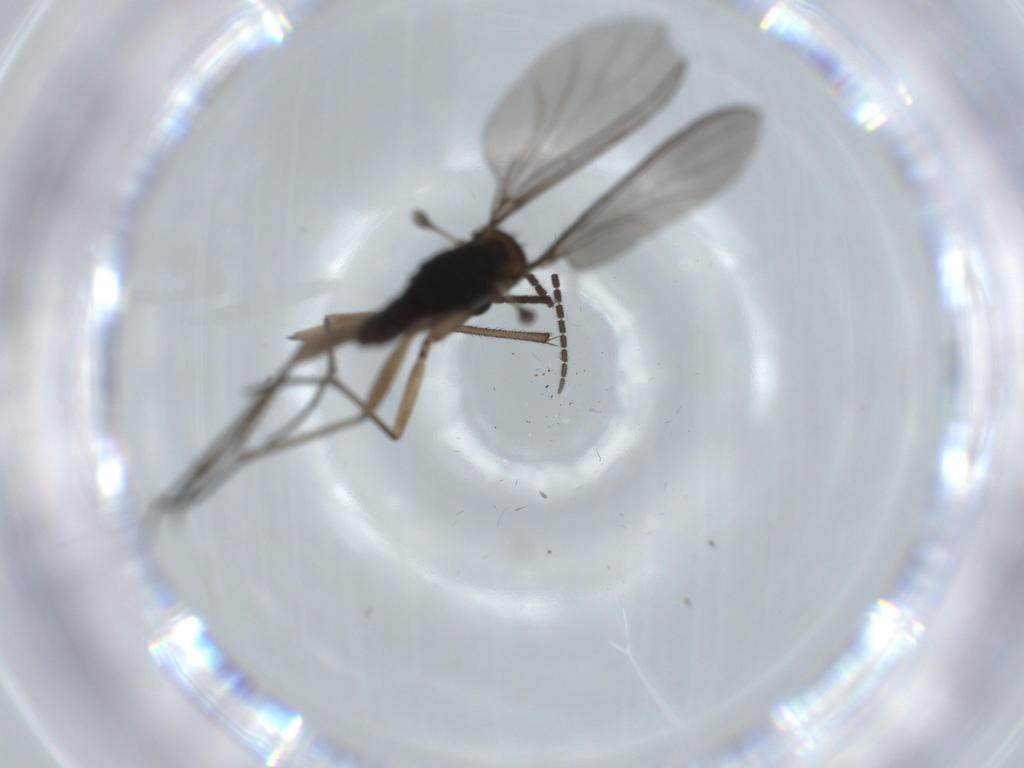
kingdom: Animalia
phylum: Arthropoda
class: Insecta
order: Diptera
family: Sciaridae
